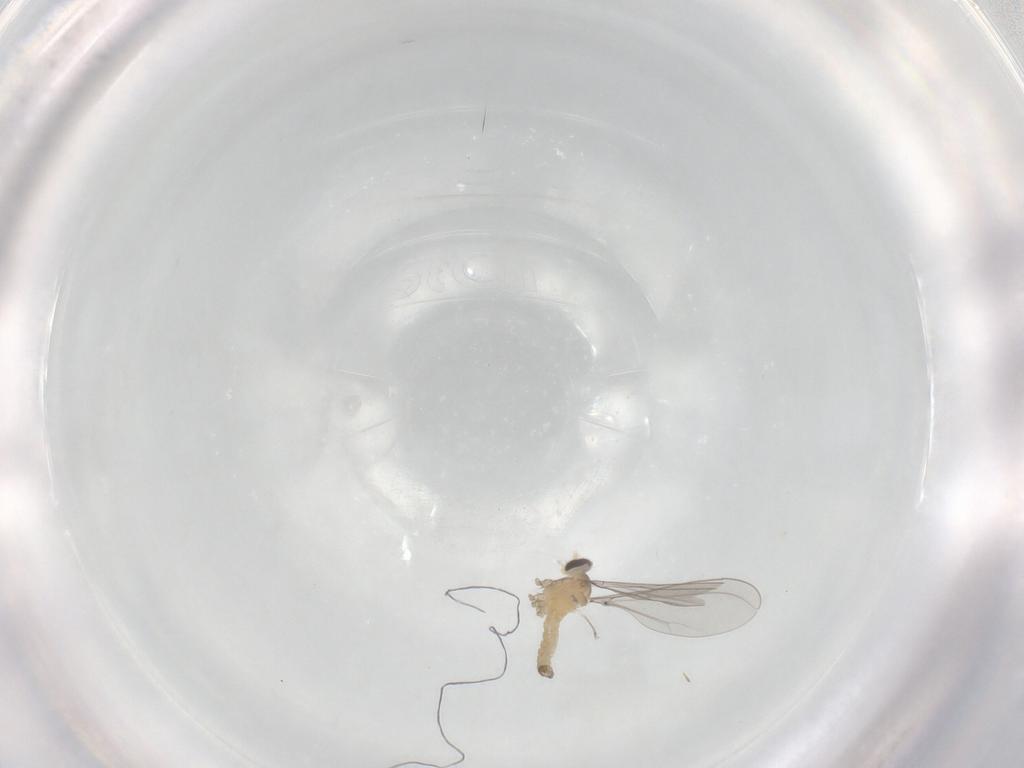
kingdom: Animalia
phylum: Arthropoda
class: Insecta
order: Diptera
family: Cecidomyiidae
